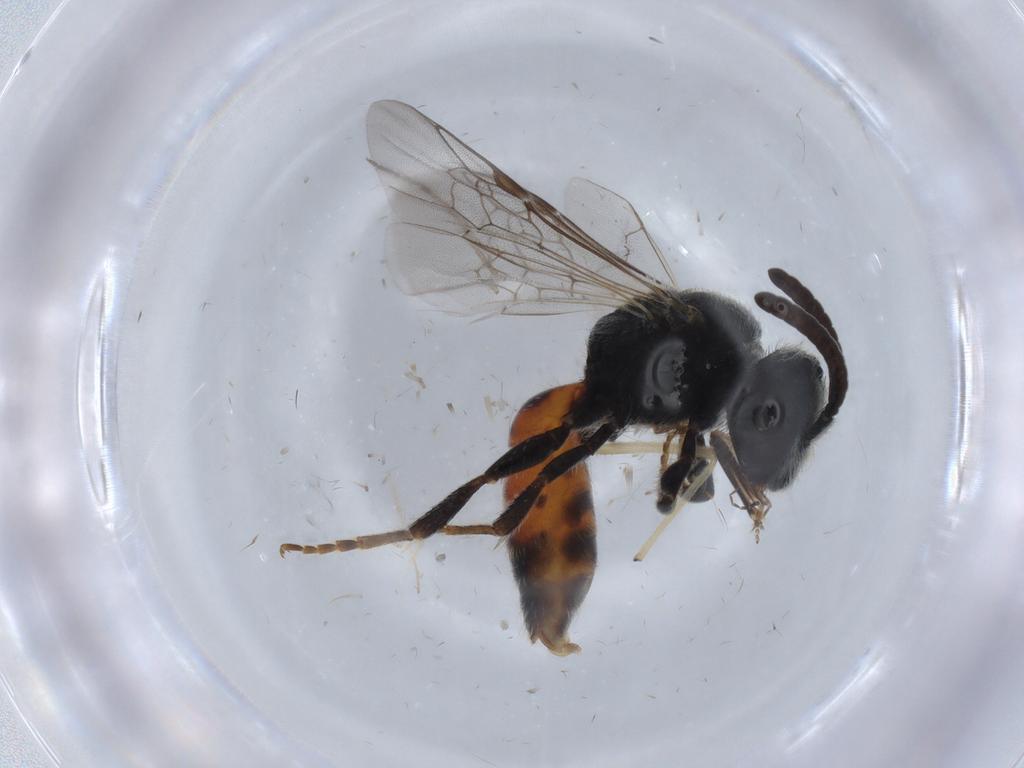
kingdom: Animalia
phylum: Arthropoda
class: Insecta
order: Hymenoptera
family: Halictidae
